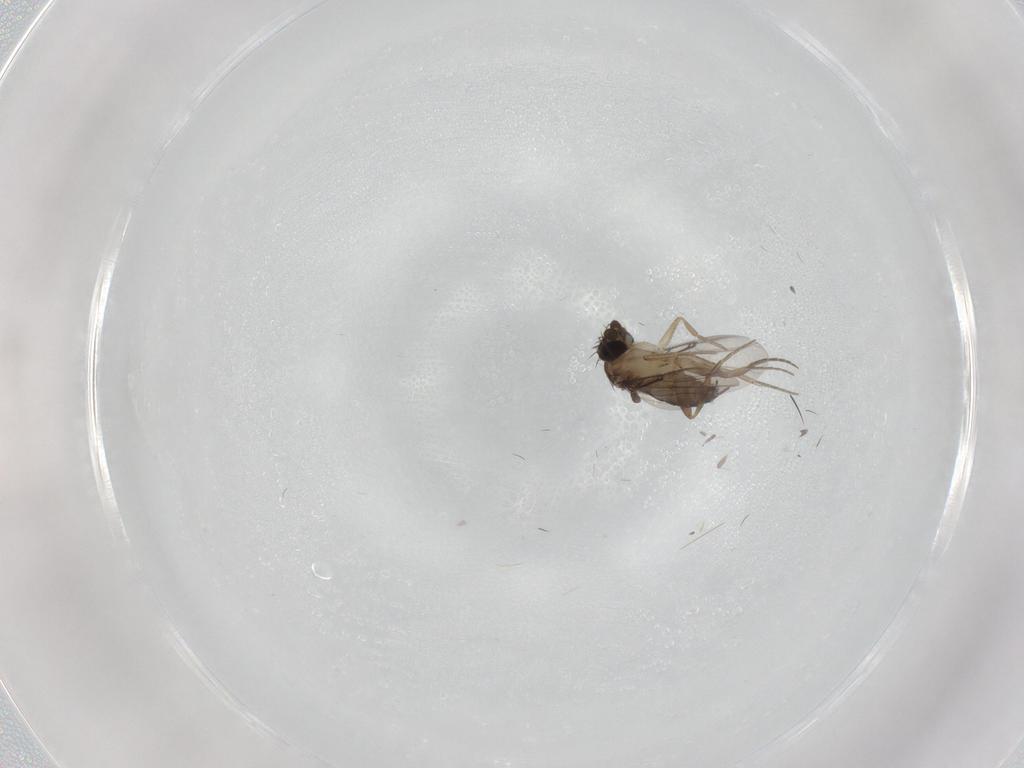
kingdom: Animalia
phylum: Arthropoda
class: Insecta
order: Diptera
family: Phoridae
